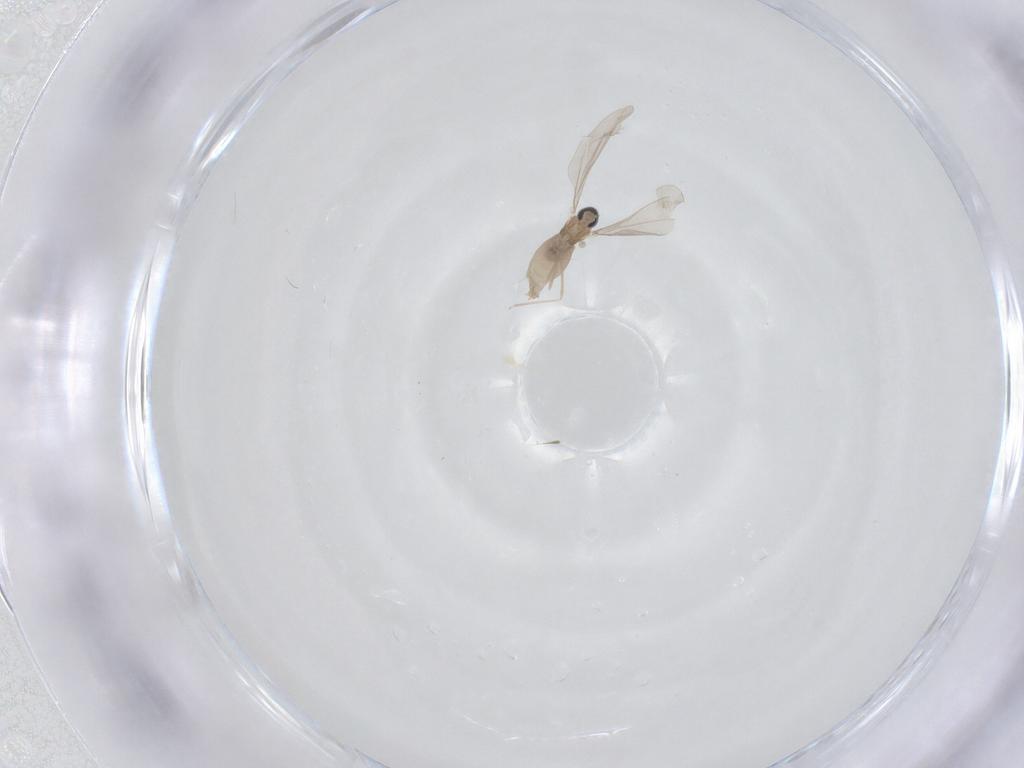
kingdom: Animalia
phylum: Arthropoda
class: Insecta
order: Diptera
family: Cecidomyiidae
